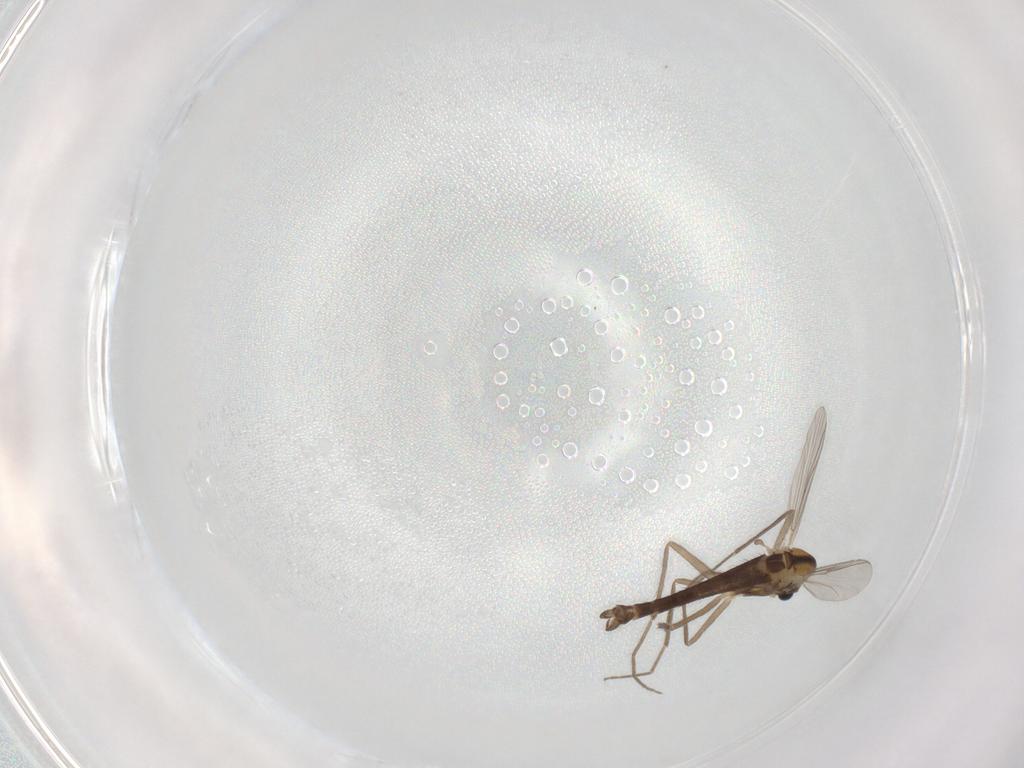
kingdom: Animalia
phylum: Arthropoda
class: Insecta
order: Diptera
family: Chironomidae
